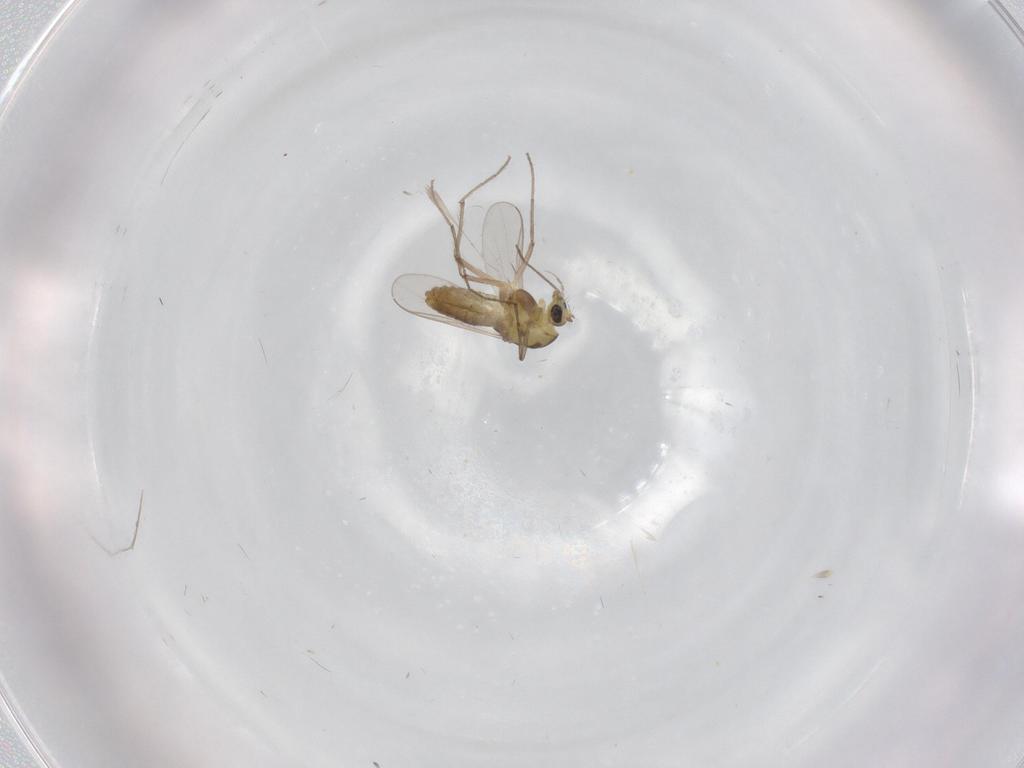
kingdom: Animalia
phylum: Arthropoda
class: Insecta
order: Diptera
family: Chironomidae
